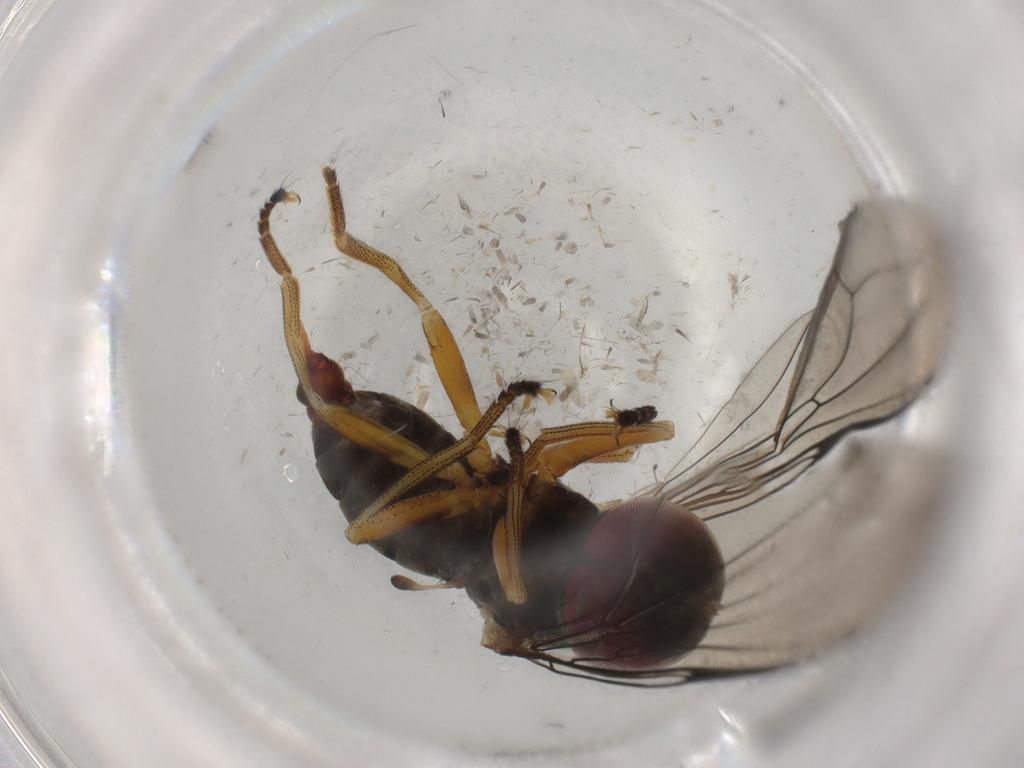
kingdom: Animalia
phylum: Arthropoda
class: Insecta
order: Diptera
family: Pipunculidae
